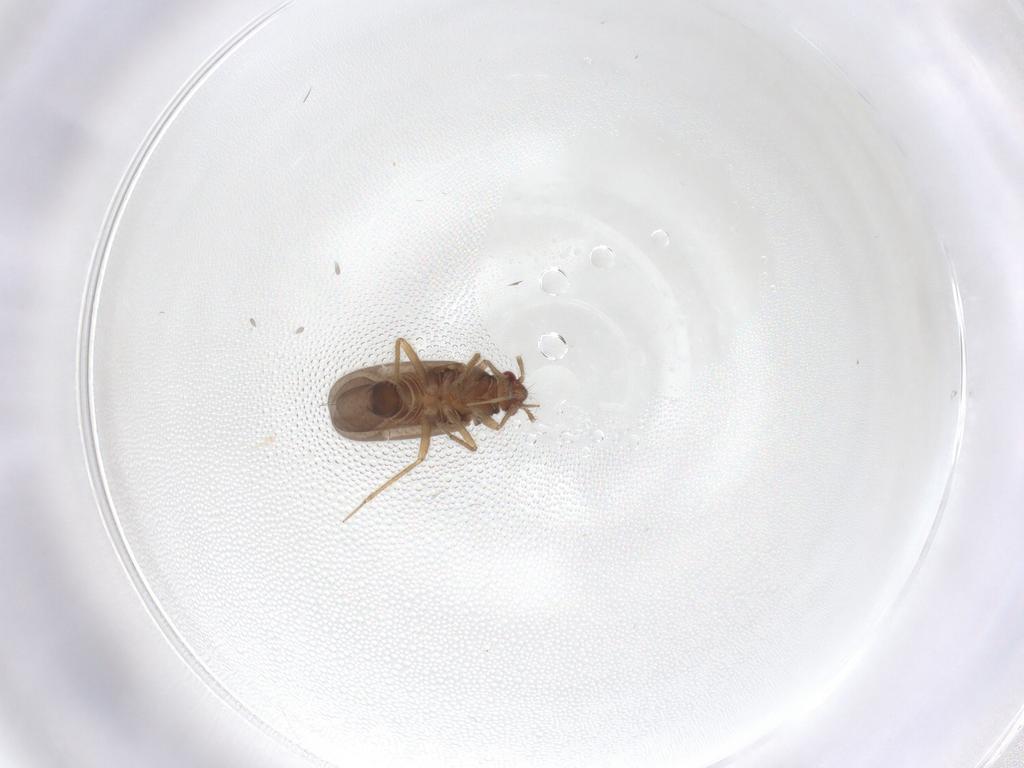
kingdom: Animalia
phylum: Arthropoda
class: Insecta
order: Hemiptera
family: Ceratocombidae
